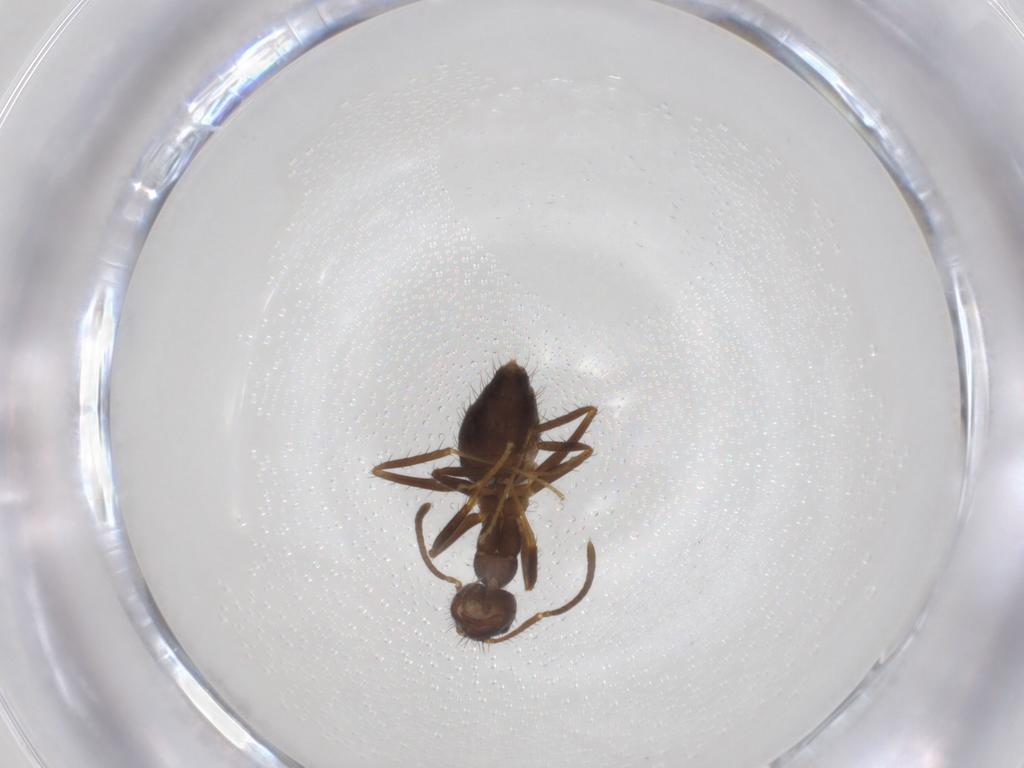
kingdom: Animalia
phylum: Arthropoda
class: Insecta
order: Hymenoptera
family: Formicidae
